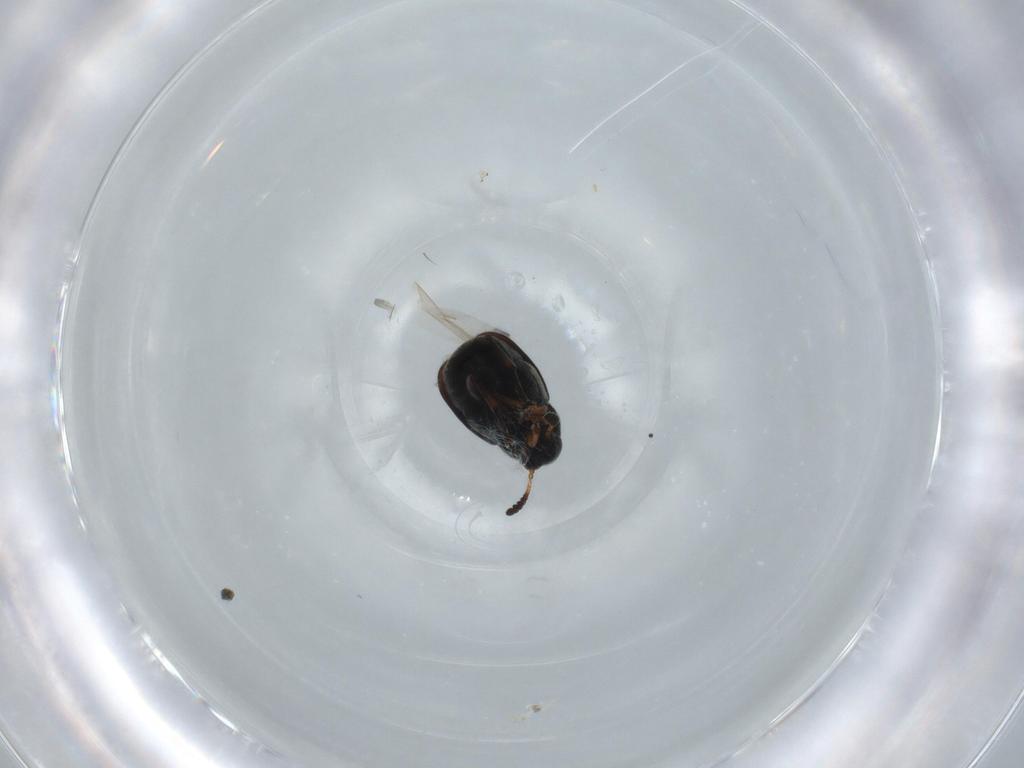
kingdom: Animalia
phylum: Arthropoda
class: Insecta
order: Coleoptera
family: Chrysomelidae
